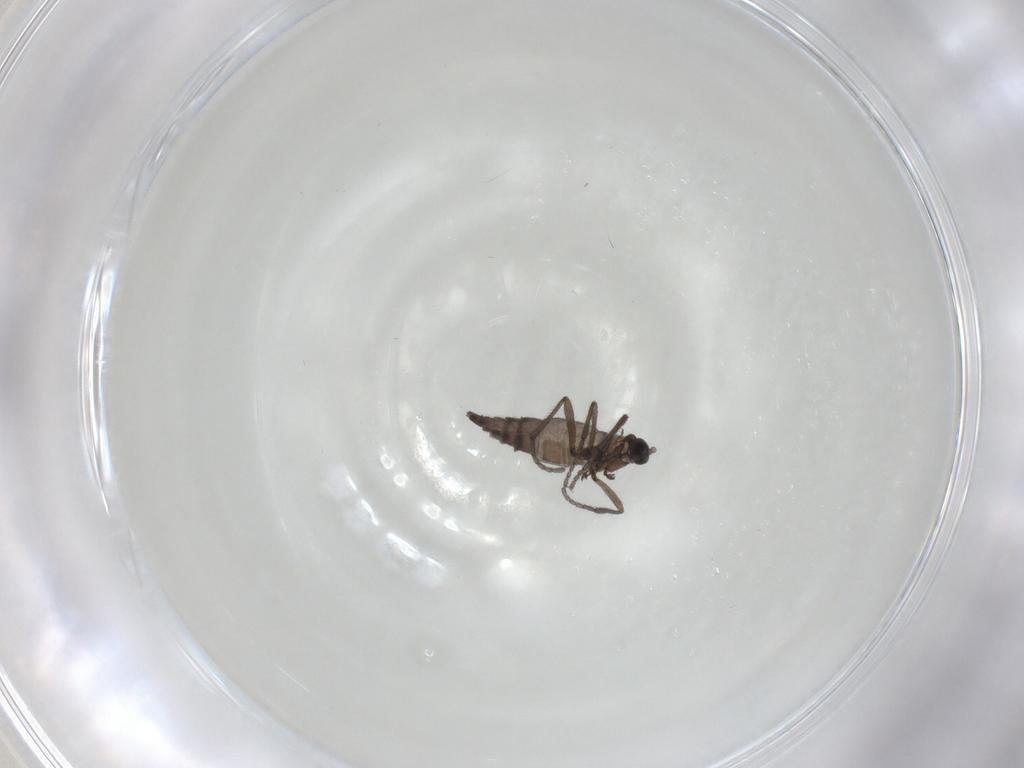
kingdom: Animalia
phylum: Arthropoda
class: Insecta
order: Diptera
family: Sciaridae
